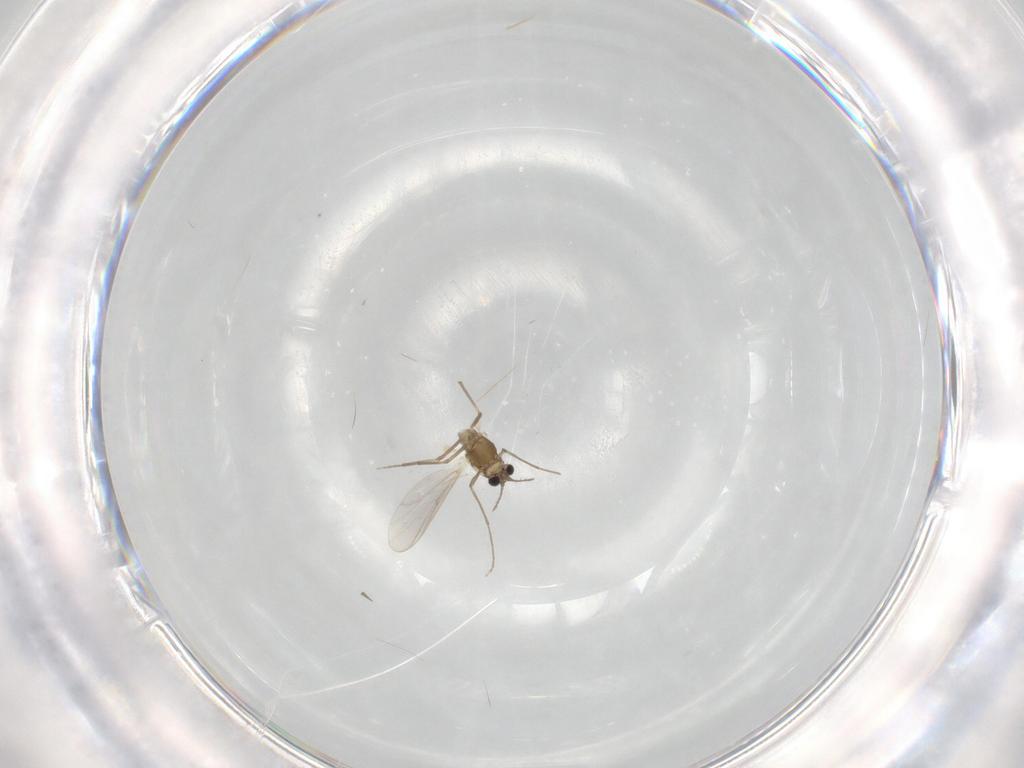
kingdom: Animalia
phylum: Arthropoda
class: Insecta
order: Diptera
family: Chironomidae
